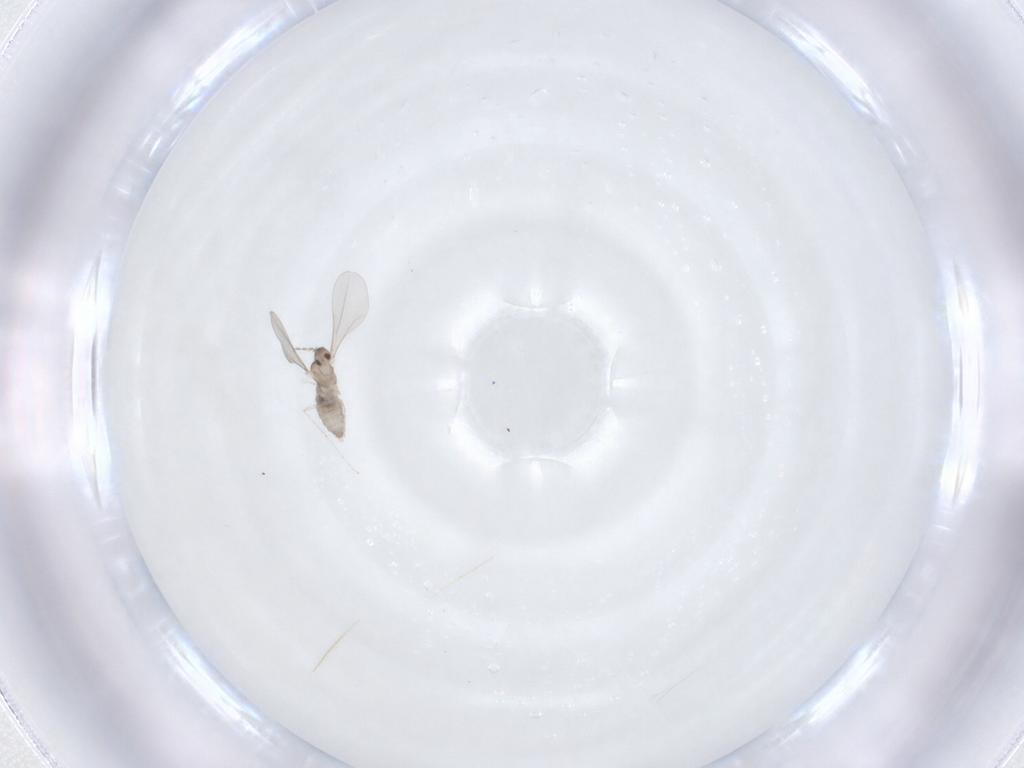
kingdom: Animalia
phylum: Arthropoda
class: Insecta
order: Diptera
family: Cecidomyiidae
